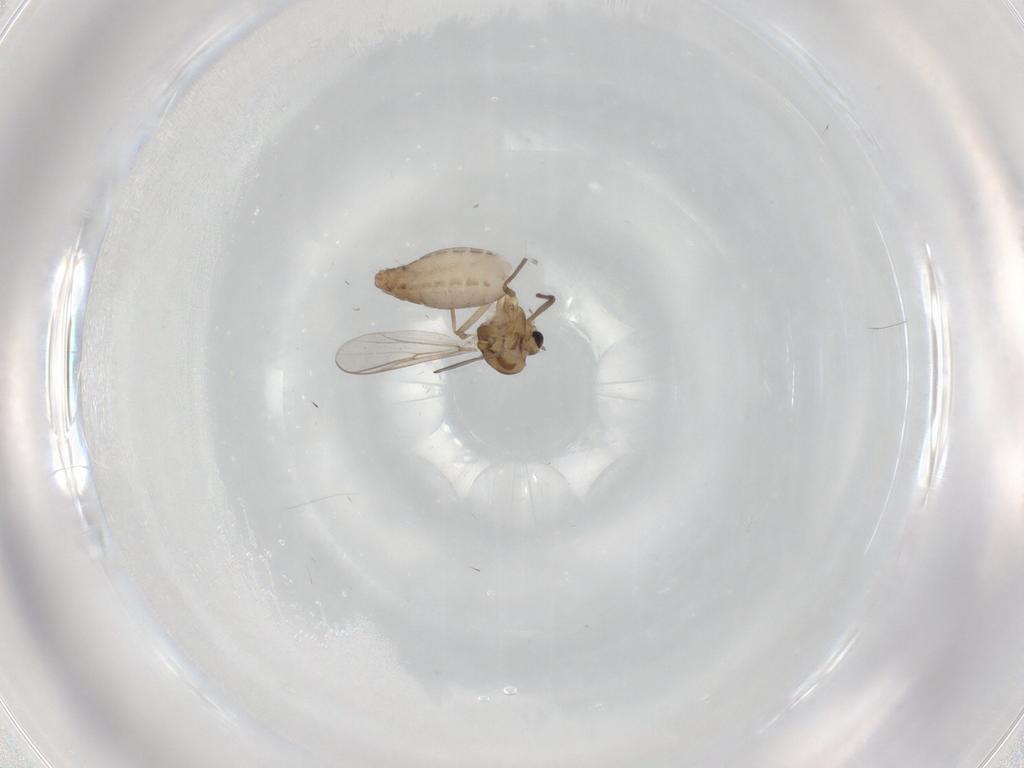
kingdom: Animalia
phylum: Arthropoda
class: Insecta
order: Diptera
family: Chironomidae
